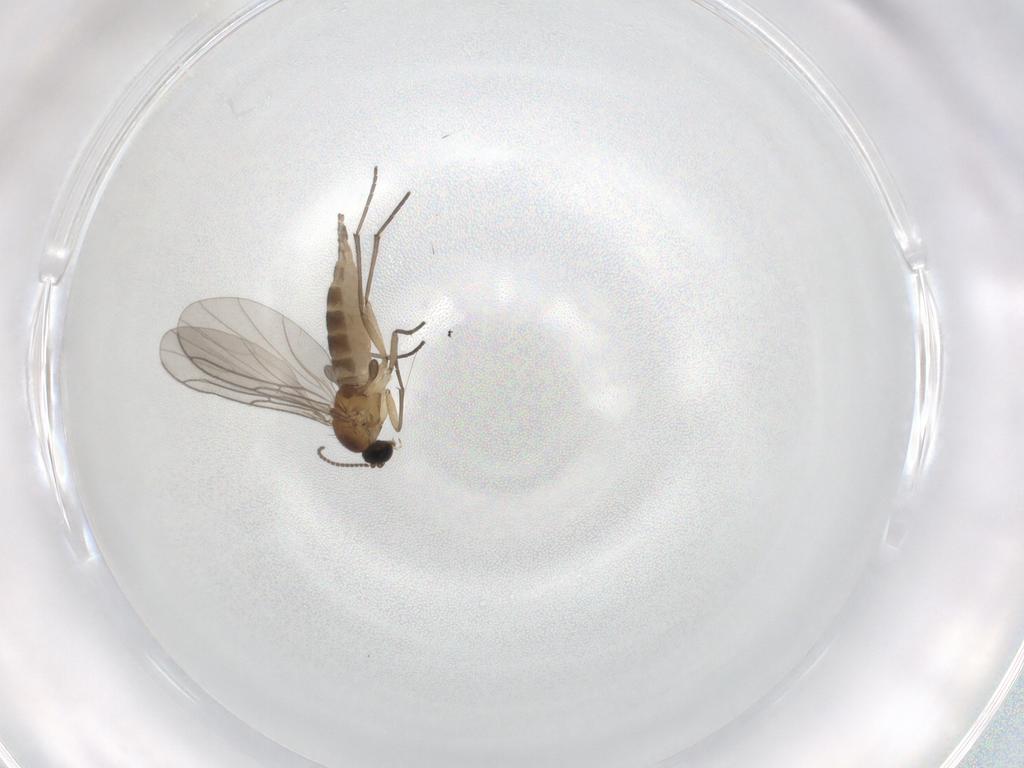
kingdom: Animalia
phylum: Arthropoda
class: Insecta
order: Diptera
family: Sciaridae
